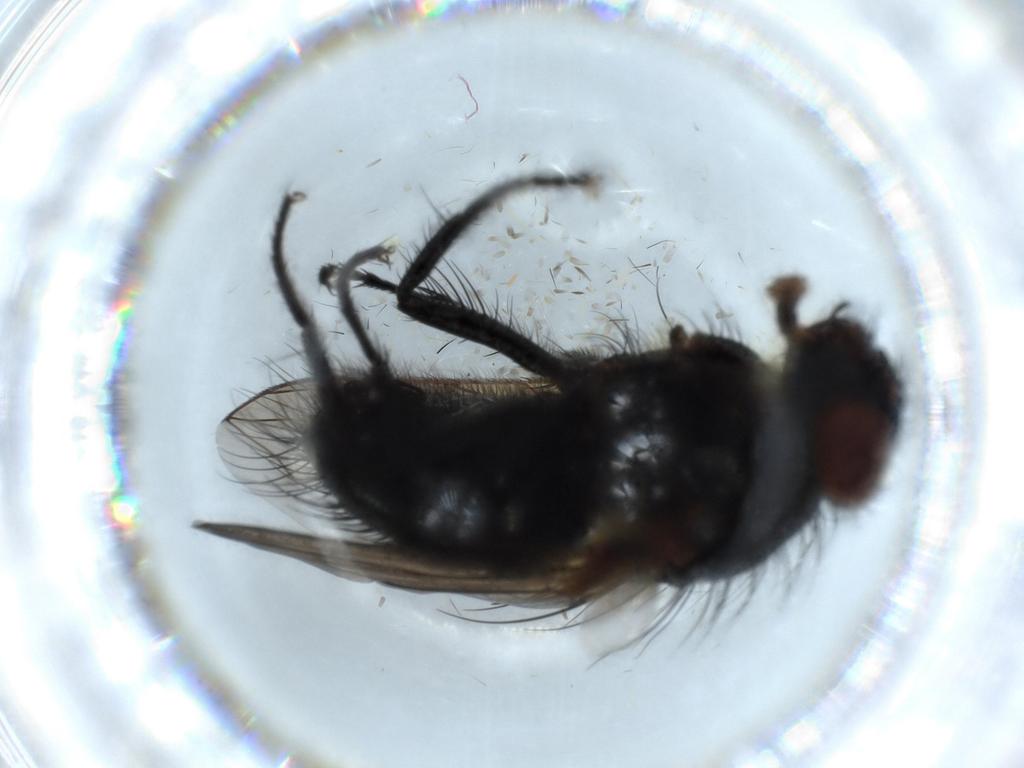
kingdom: Animalia
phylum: Arthropoda
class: Insecta
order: Diptera
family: Polleniidae
